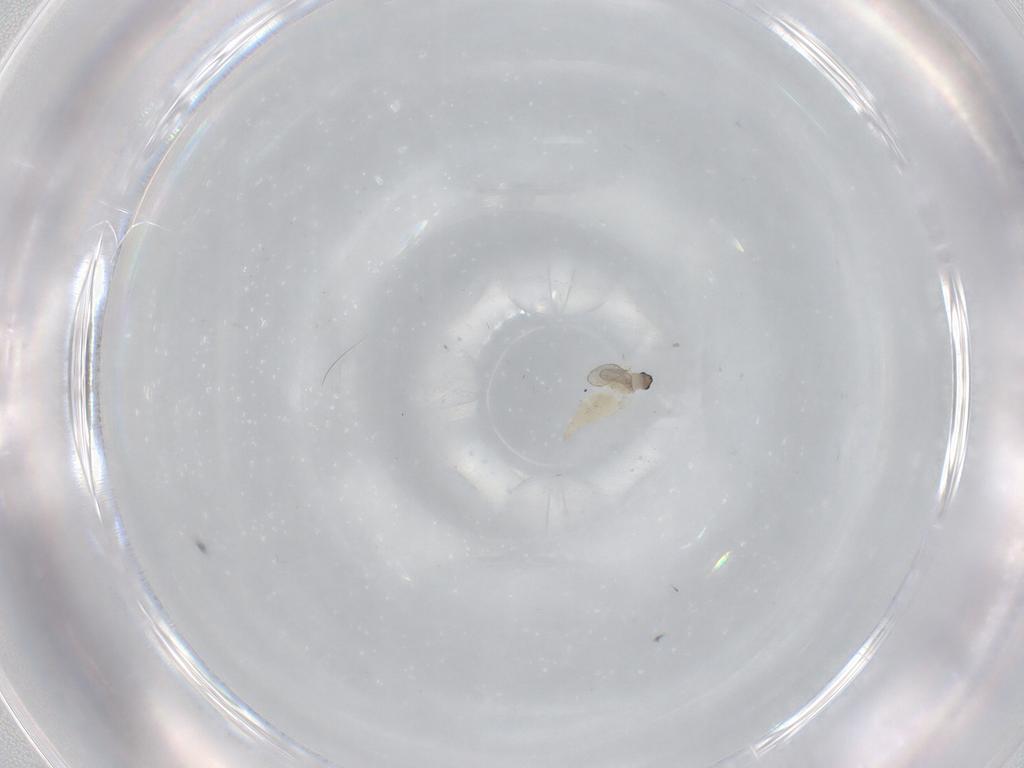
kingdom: Animalia
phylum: Arthropoda
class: Insecta
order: Diptera
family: Cecidomyiidae
